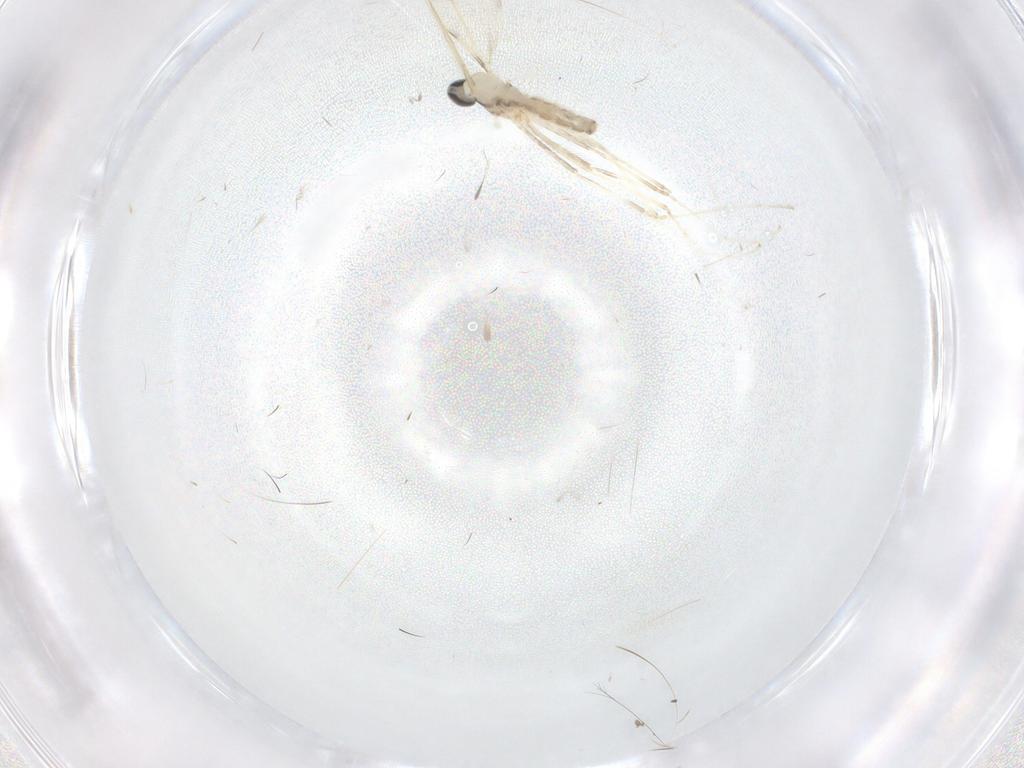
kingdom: Animalia
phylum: Arthropoda
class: Insecta
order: Diptera
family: Cecidomyiidae
